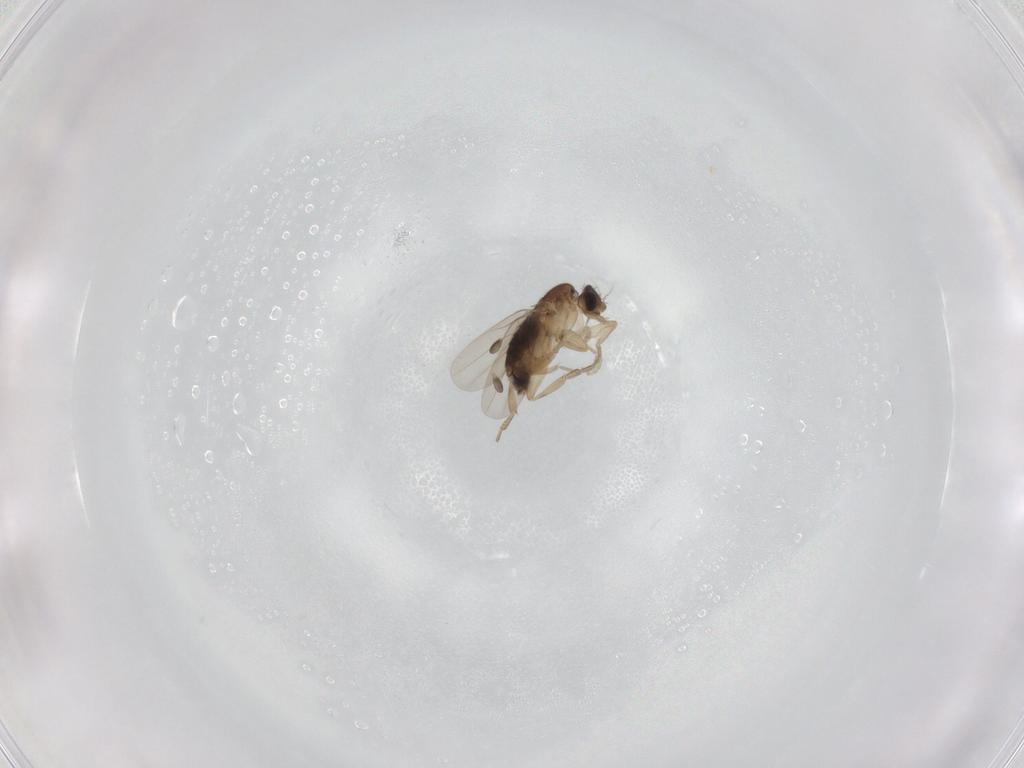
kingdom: Animalia
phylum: Arthropoda
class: Insecta
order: Diptera
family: Phoridae
